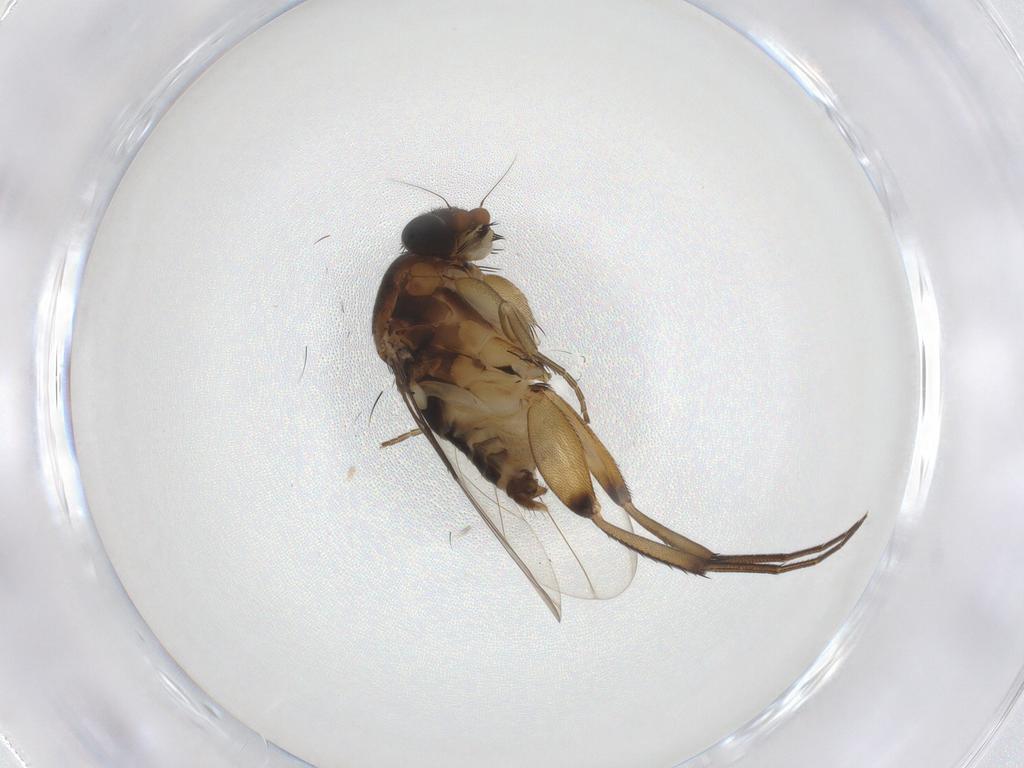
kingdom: Animalia
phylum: Arthropoda
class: Insecta
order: Diptera
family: Phoridae
